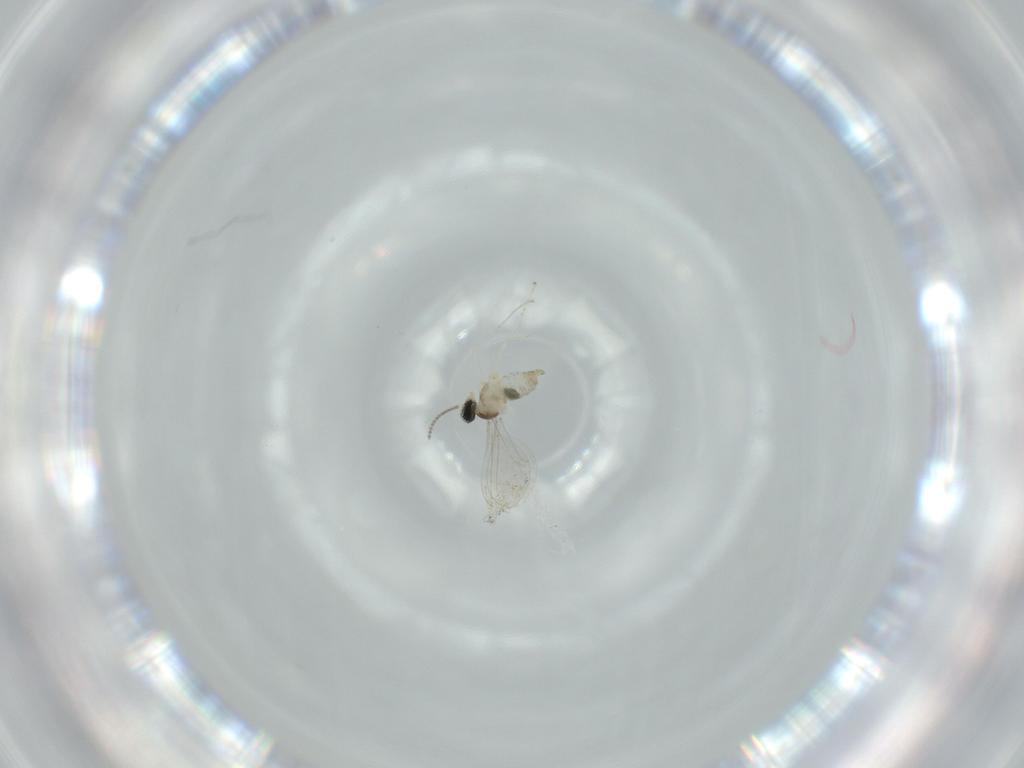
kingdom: Animalia
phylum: Arthropoda
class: Insecta
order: Diptera
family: Cecidomyiidae
